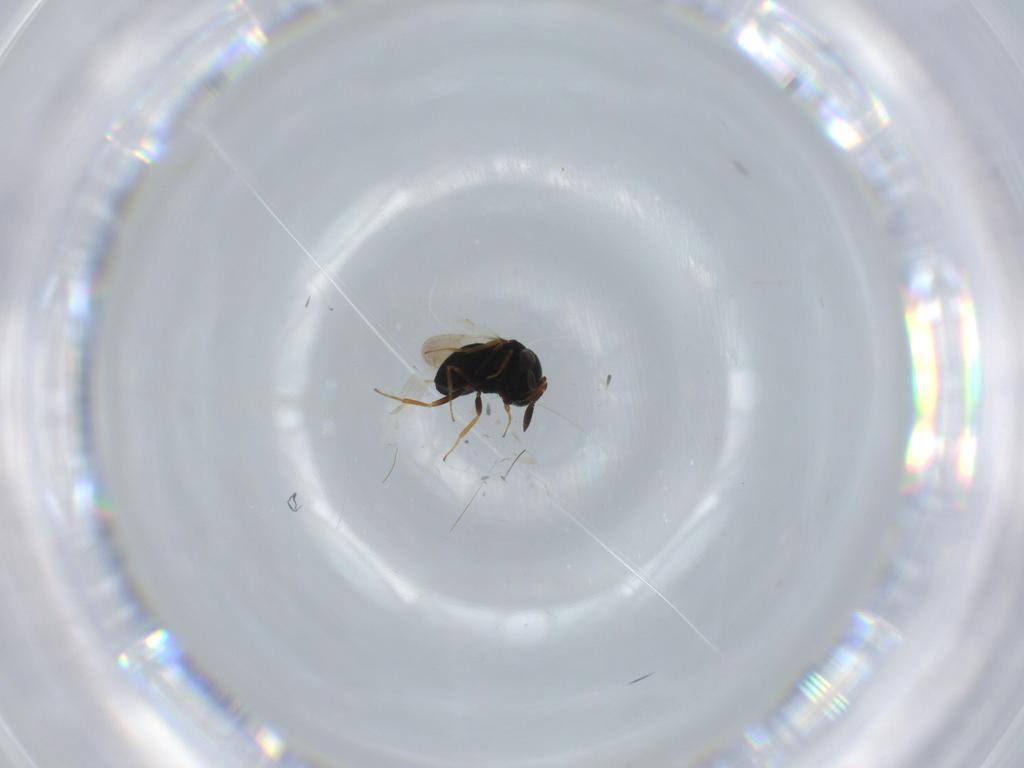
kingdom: Animalia
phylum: Arthropoda
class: Insecta
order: Hymenoptera
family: Scelionidae
